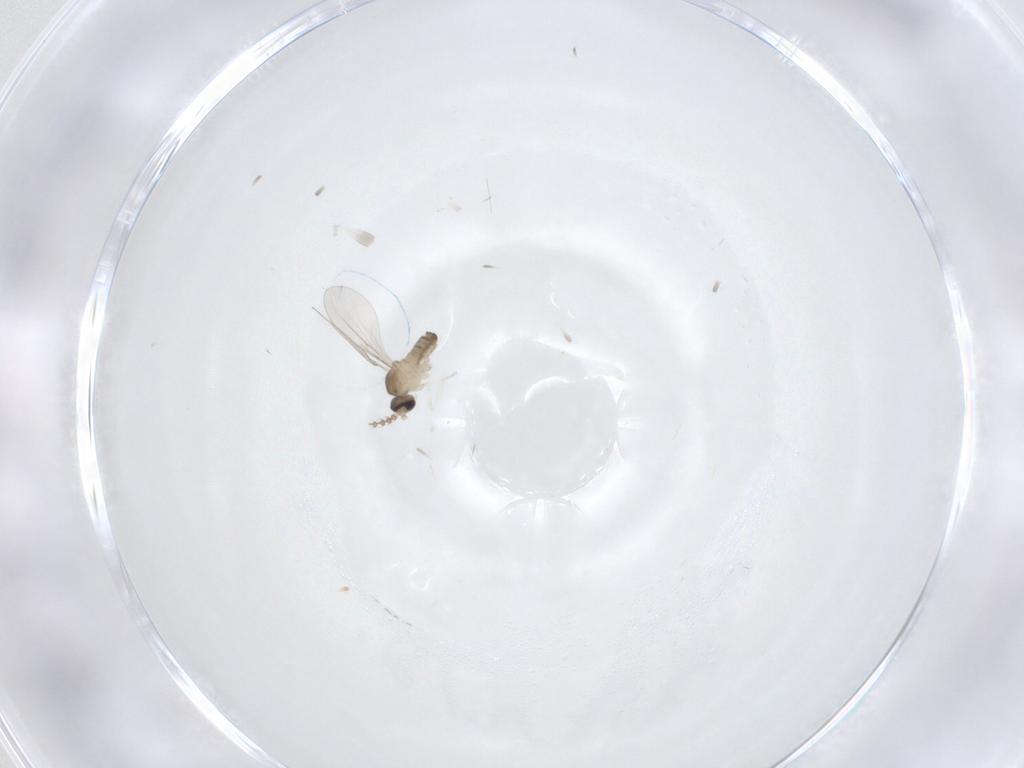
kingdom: Animalia
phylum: Arthropoda
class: Insecta
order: Diptera
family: Cecidomyiidae
